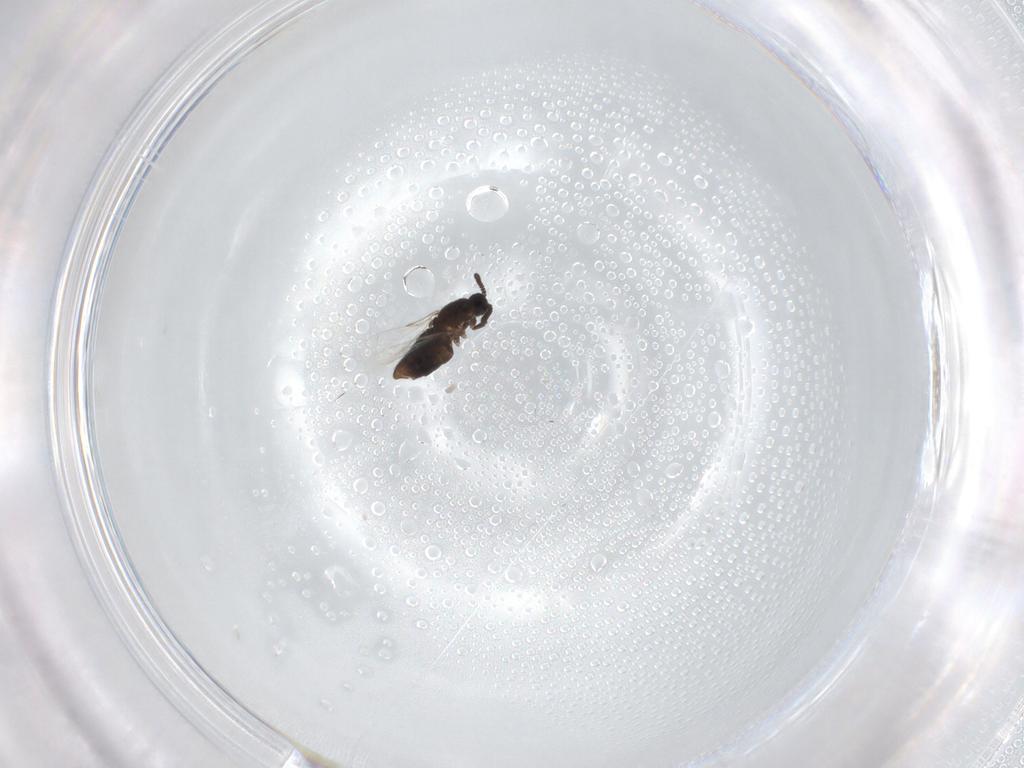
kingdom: Animalia
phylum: Arthropoda
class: Insecta
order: Diptera
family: Scatopsidae
